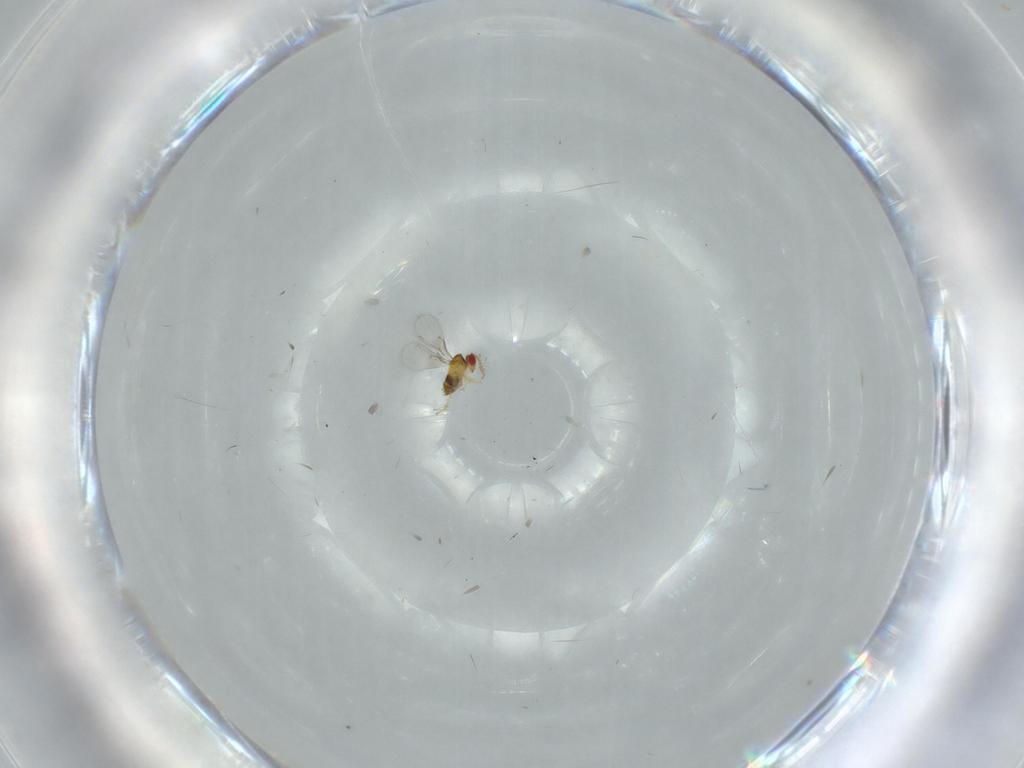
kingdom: Animalia
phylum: Arthropoda
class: Insecta
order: Hymenoptera
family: Trichogrammatidae
